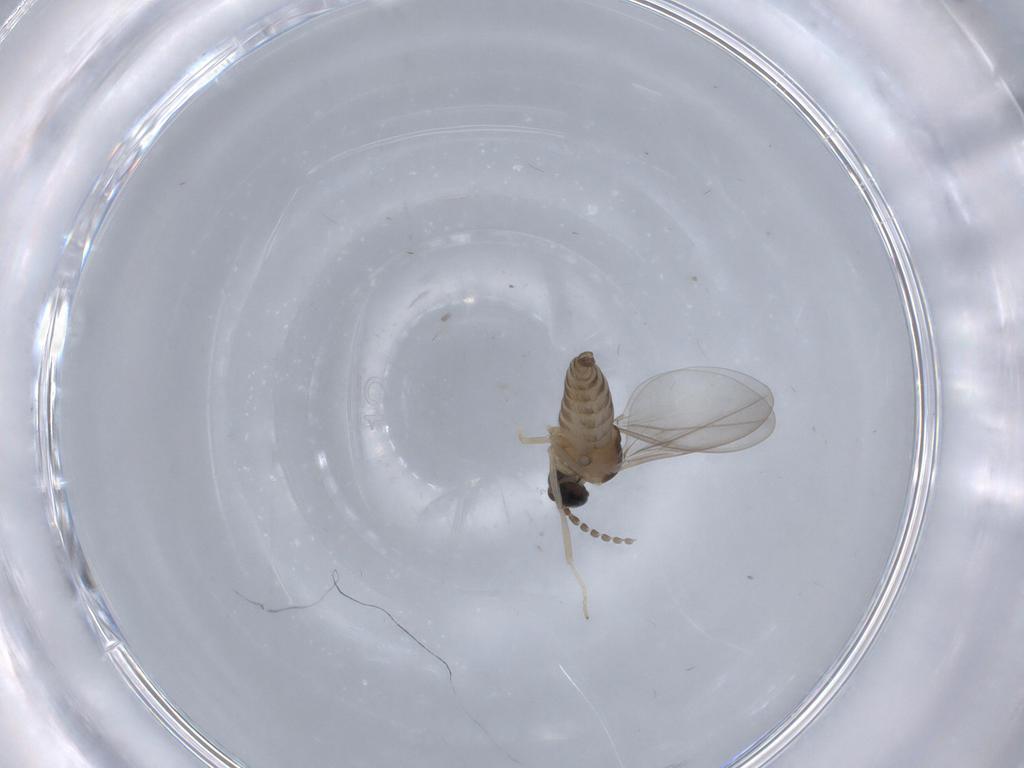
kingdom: Animalia
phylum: Arthropoda
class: Insecta
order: Diptera
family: Cecidomyiidae
